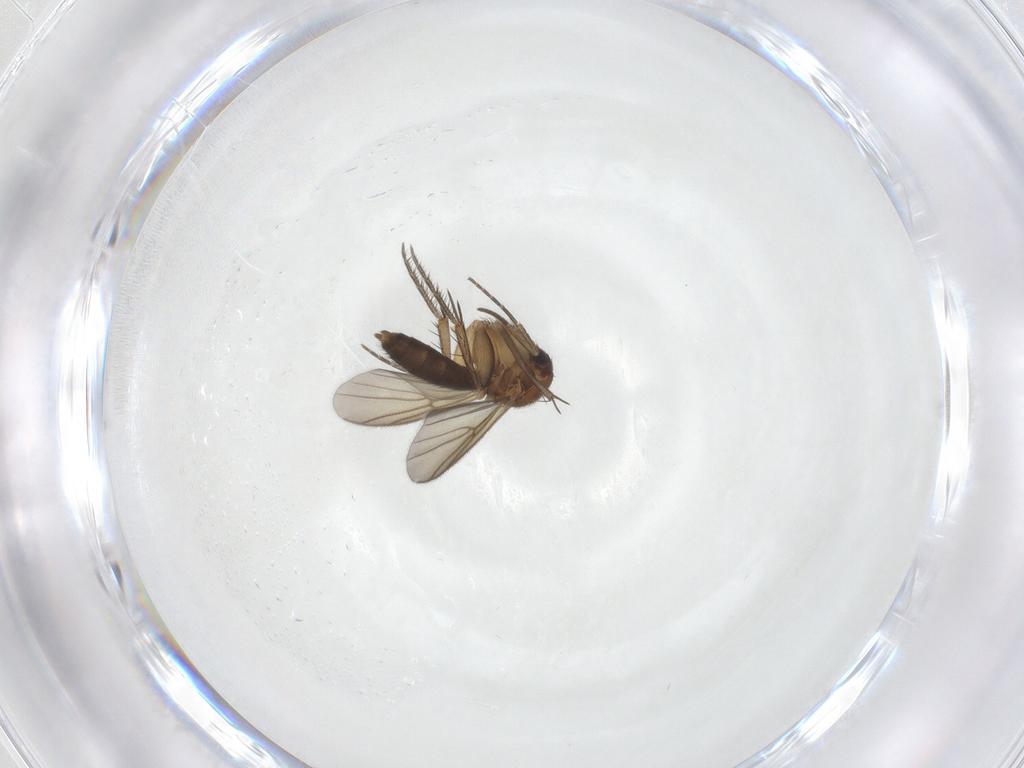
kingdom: Animalia
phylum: Arthropoda
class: Insecta
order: Diptera
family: Mycetophilidae
